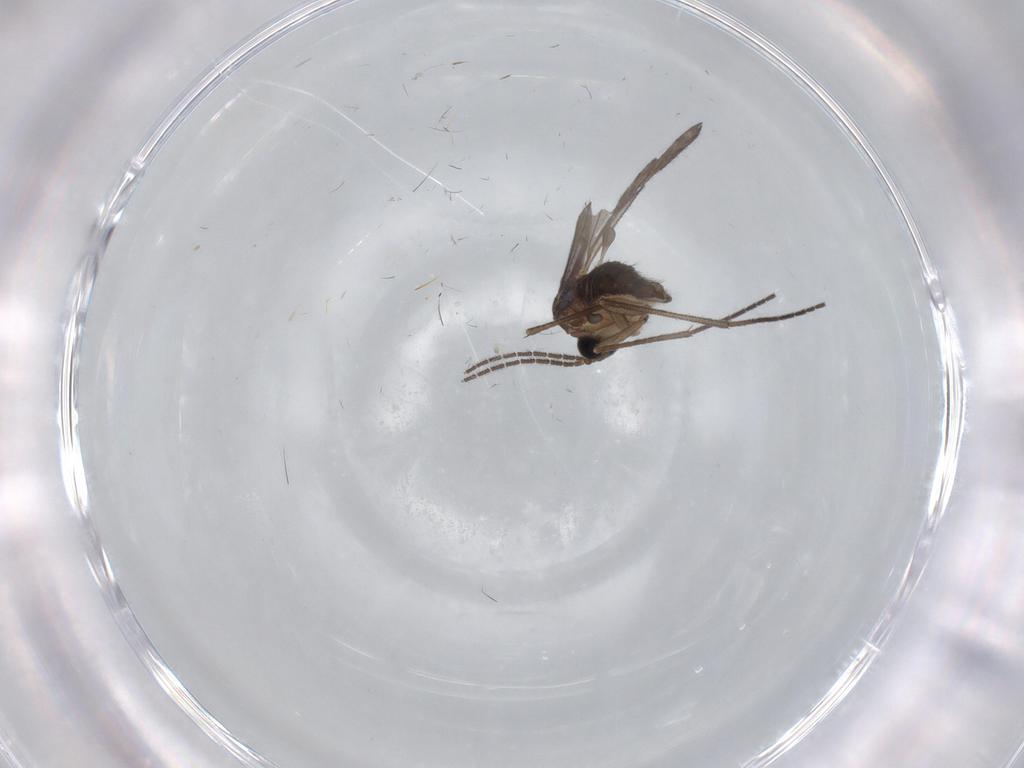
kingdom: Animalia
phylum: Arthropoda
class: Insecta
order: Diptera
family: Sciaridae
